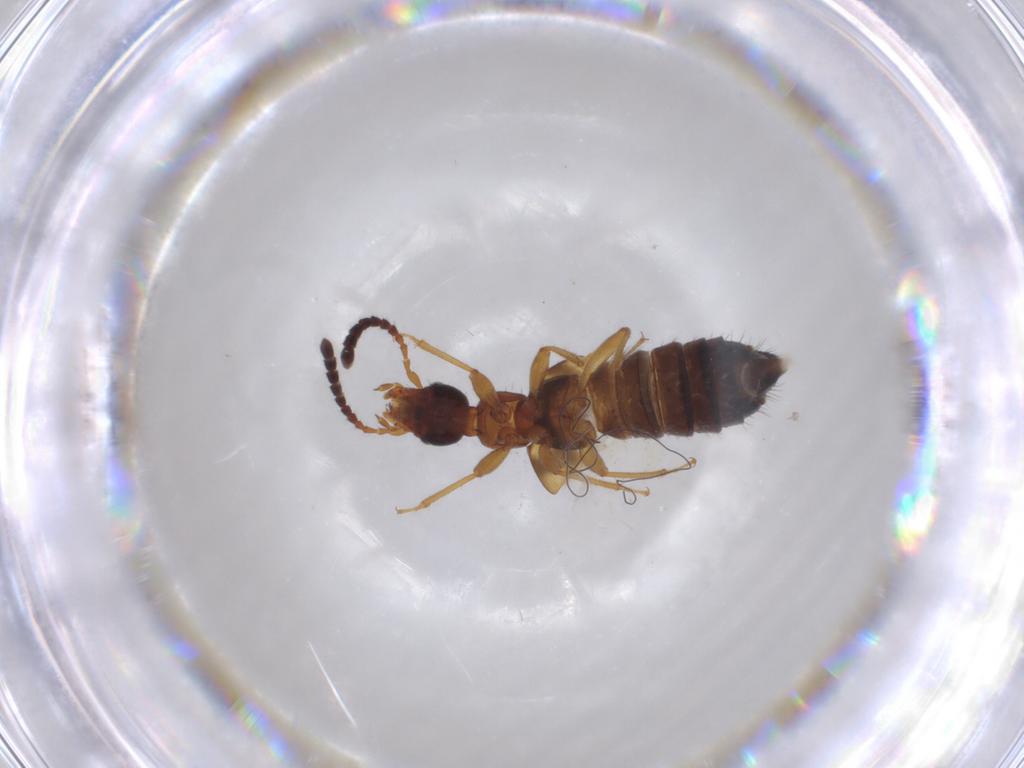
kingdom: Animalia
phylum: Arthropoda
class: Insecta
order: Coleoptera
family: Staphylinidae
